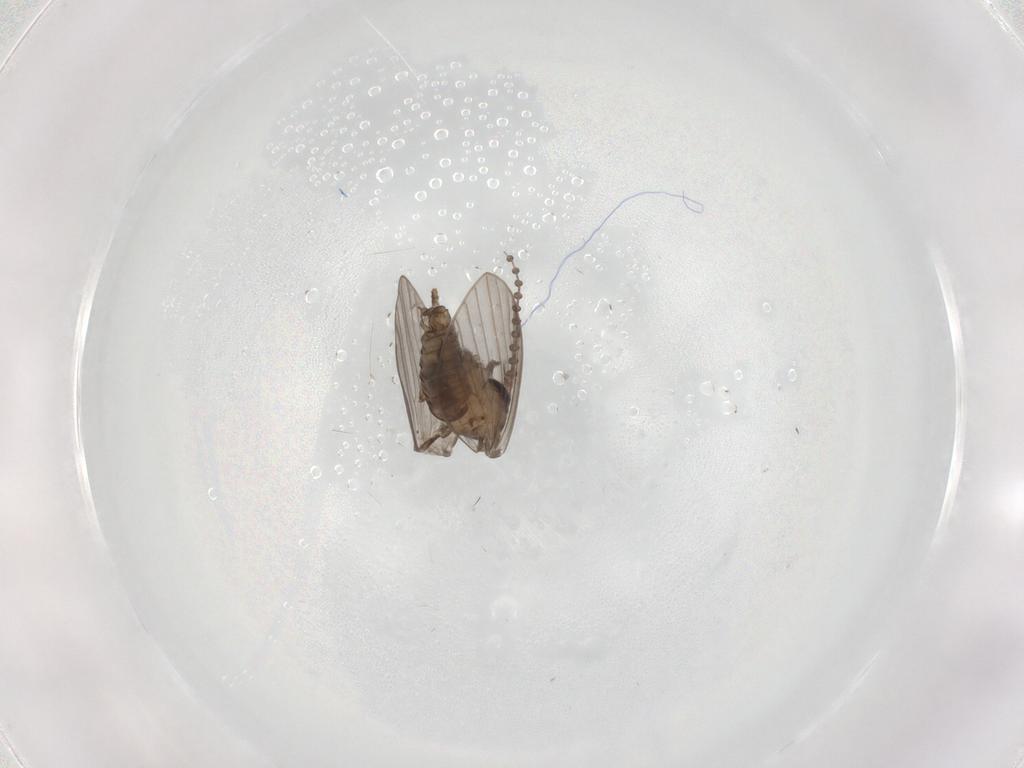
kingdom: Animalia
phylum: Arthropoda
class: Insecta
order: Diptera
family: Psychodidae
